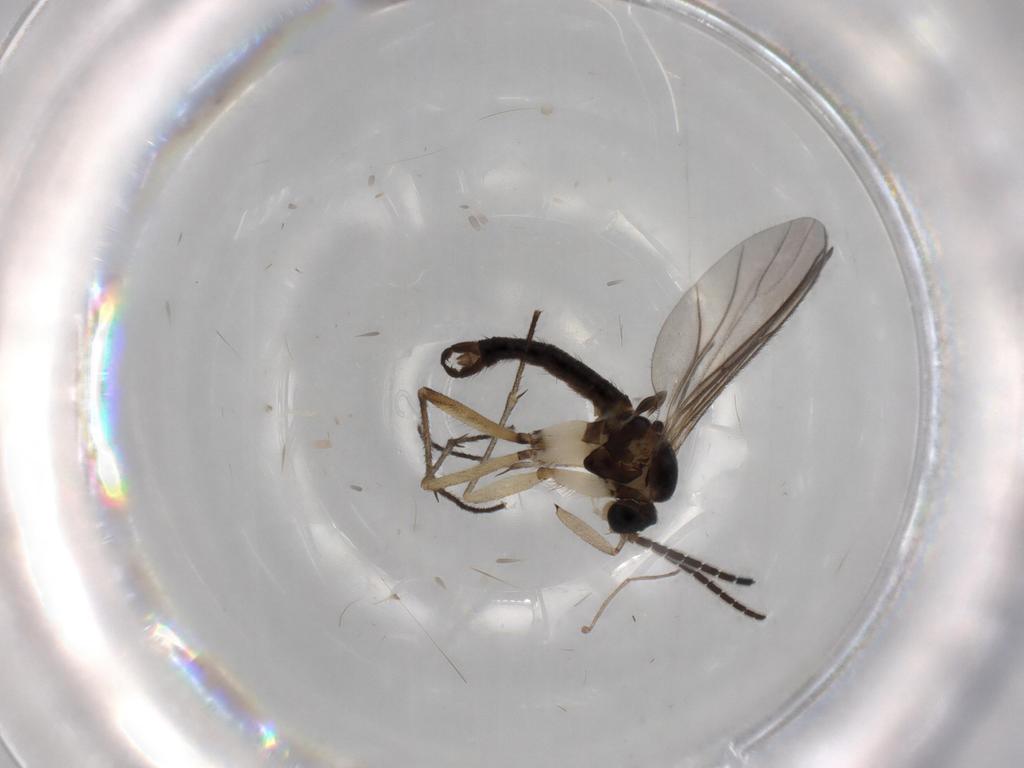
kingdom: Animalia
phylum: Arthropoda
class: Insecta
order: Diptera
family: Sciaridae
